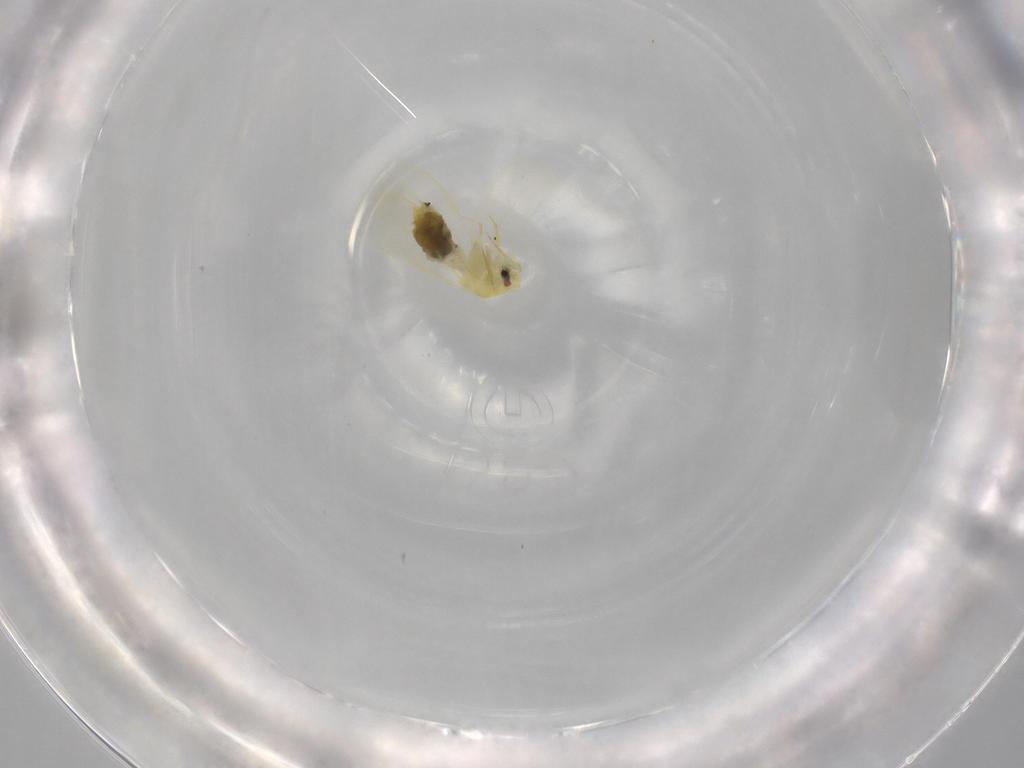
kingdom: Animalia
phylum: Arthropoda
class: Insecta
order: Hemiptera
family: Aleyrodidae
